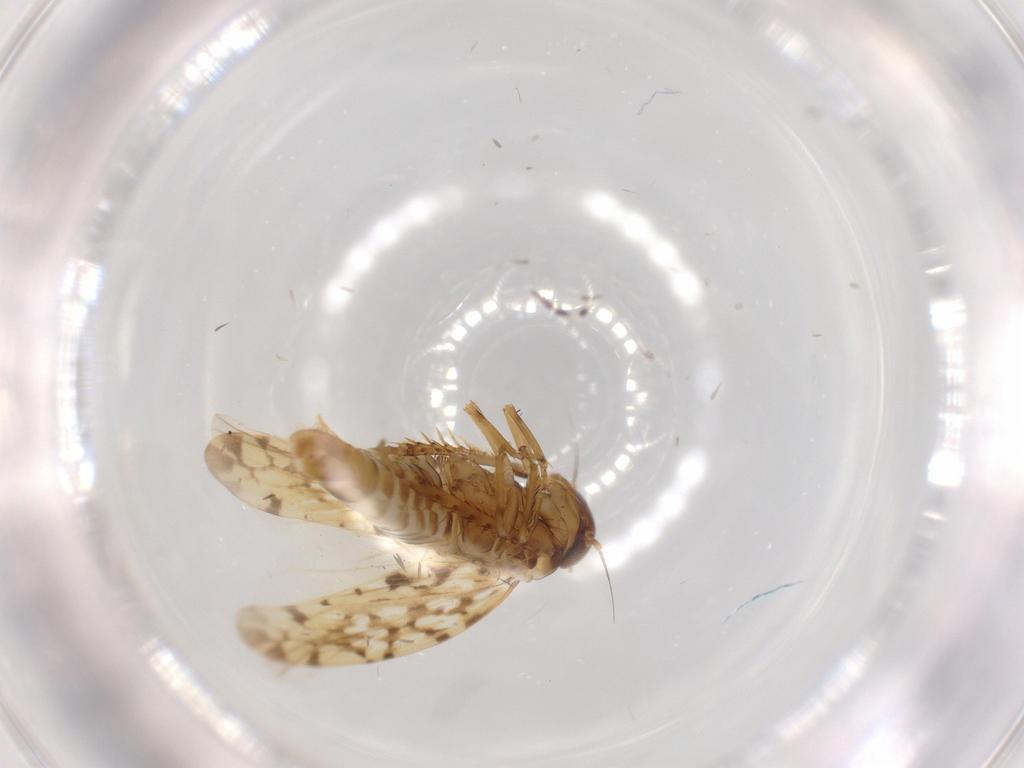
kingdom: Animalia
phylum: Arthropoda
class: Insecta
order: Hemiptera
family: Cicadellidae
